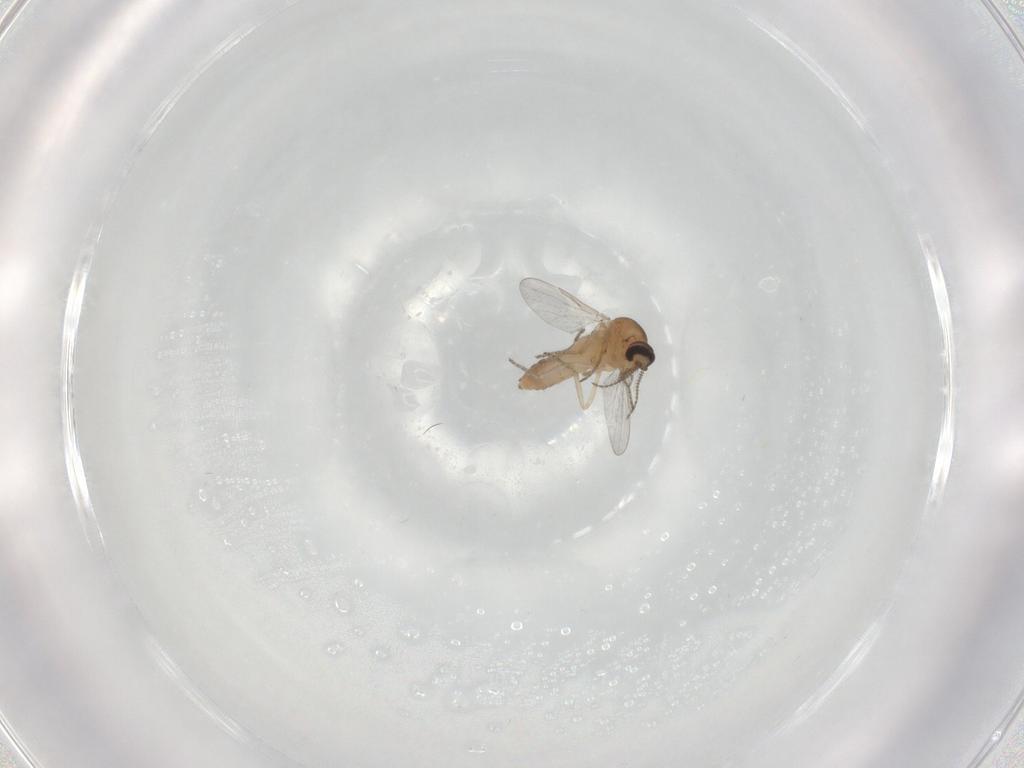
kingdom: Animalia
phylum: Arthropoda
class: Insecta
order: Diptera
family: Ceratopogonidae
